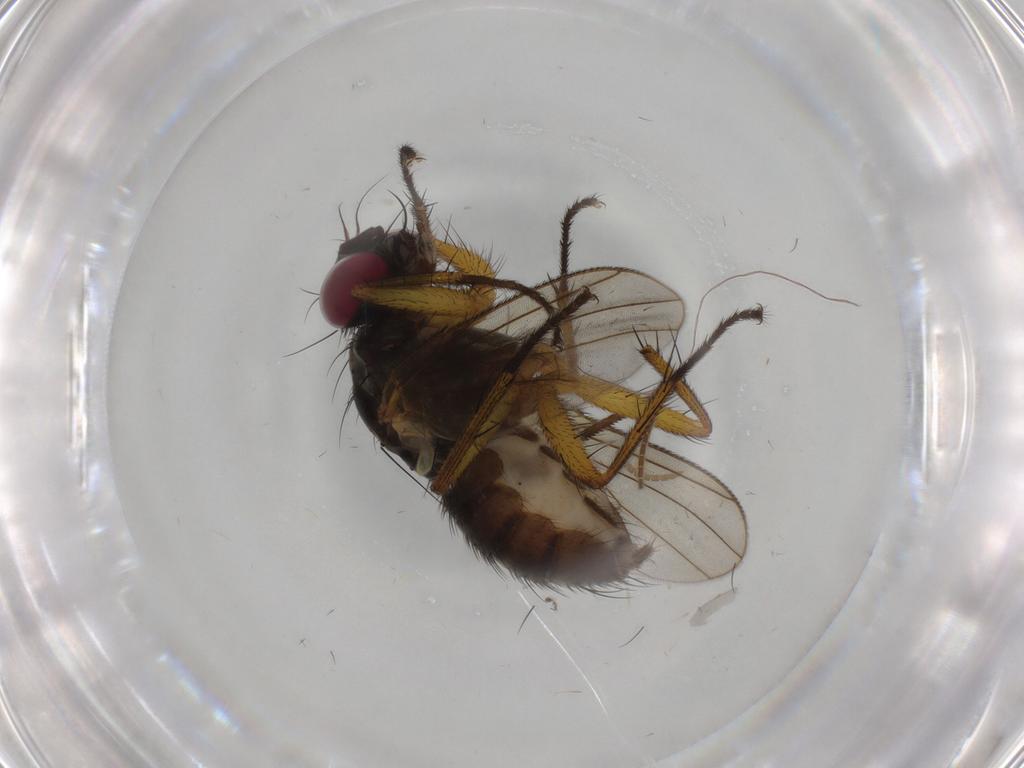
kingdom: Animalia
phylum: Arthropoda
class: Insecta
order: Diptera
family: Muscidae
